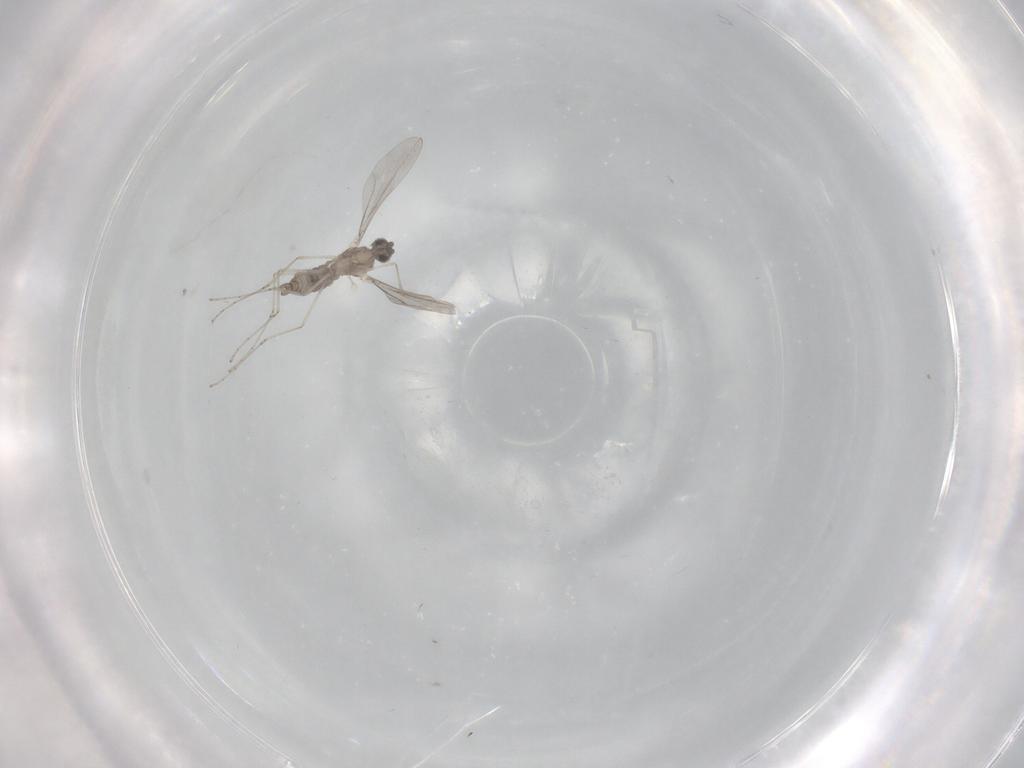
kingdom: Animalia
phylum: Arthropoda
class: Insecta
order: Diptera
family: Cecidomyiidae
